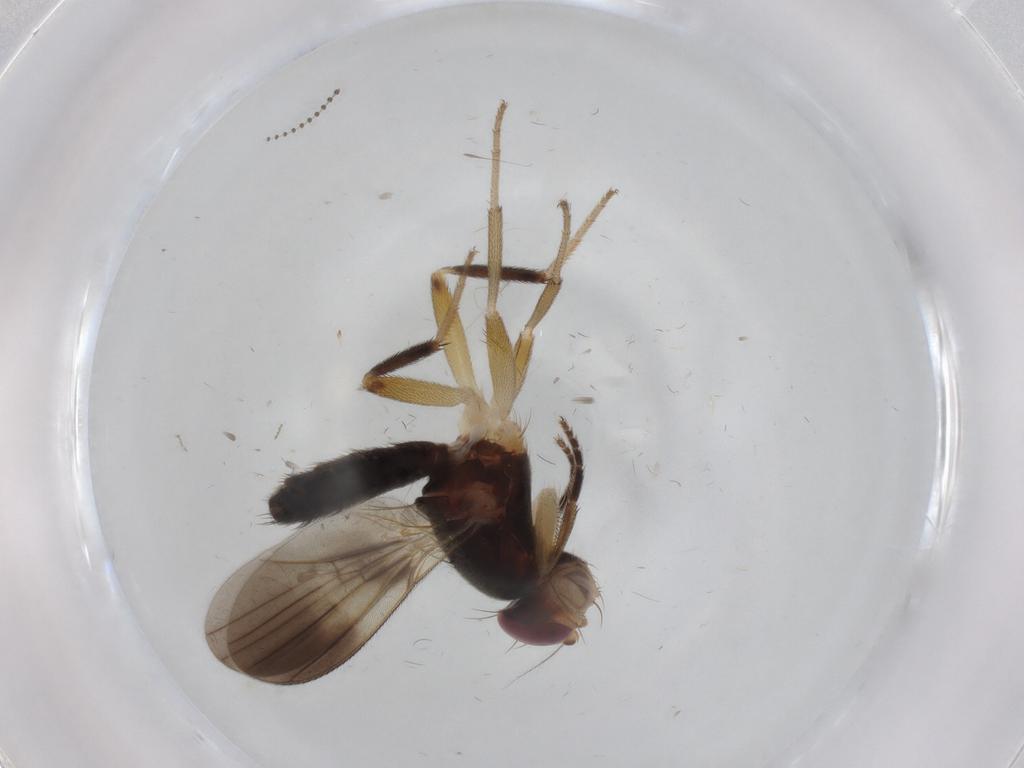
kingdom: Animalia
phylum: Arthropoda
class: Insecta
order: Diptera
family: Clusiidae
